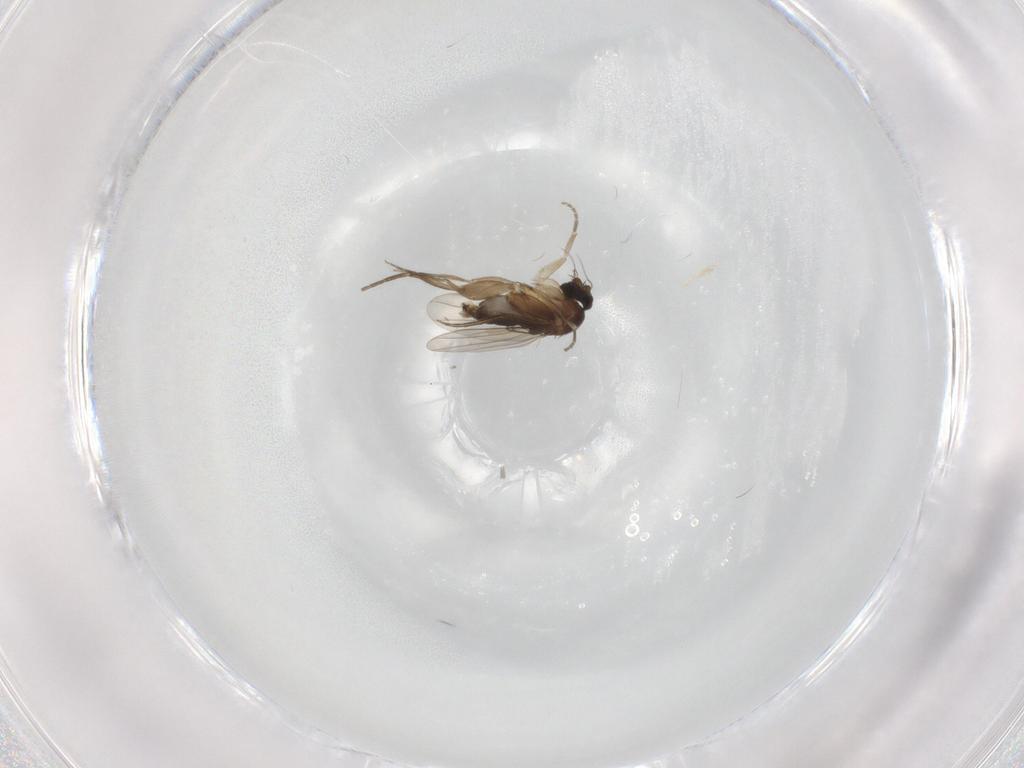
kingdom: Animalia
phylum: Arthropoda
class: Insecta
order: Diptera
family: Phoridae
